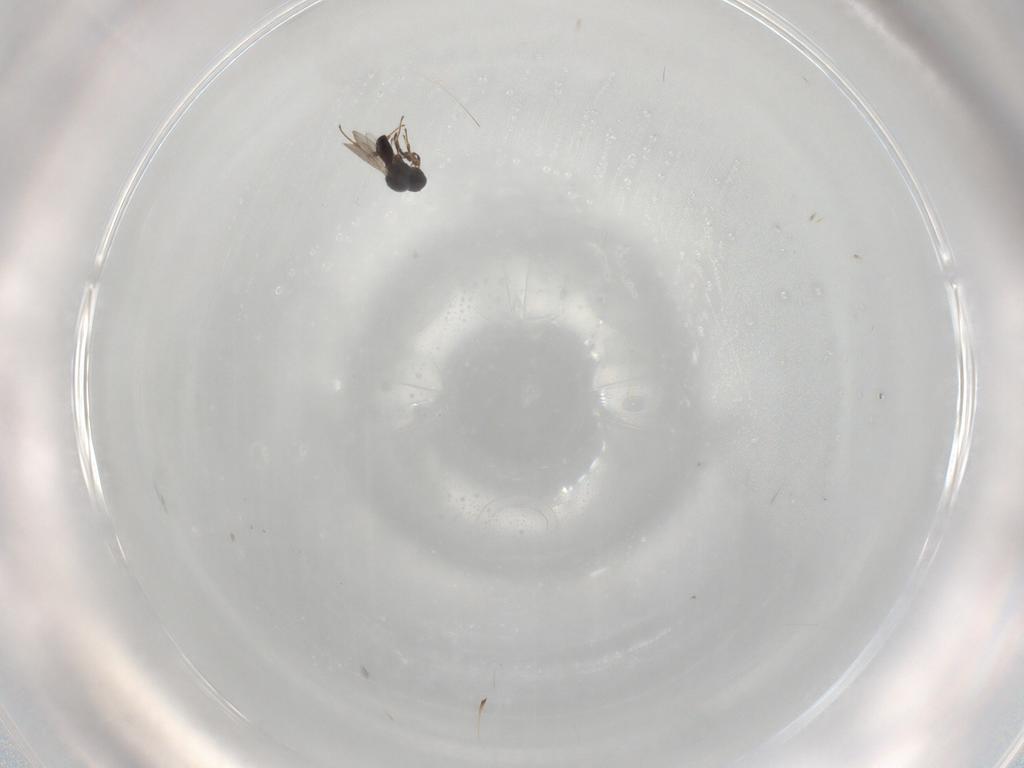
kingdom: Animalia
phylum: Arthropoda
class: Insecta
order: Hymenoptera
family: Platygastridae
